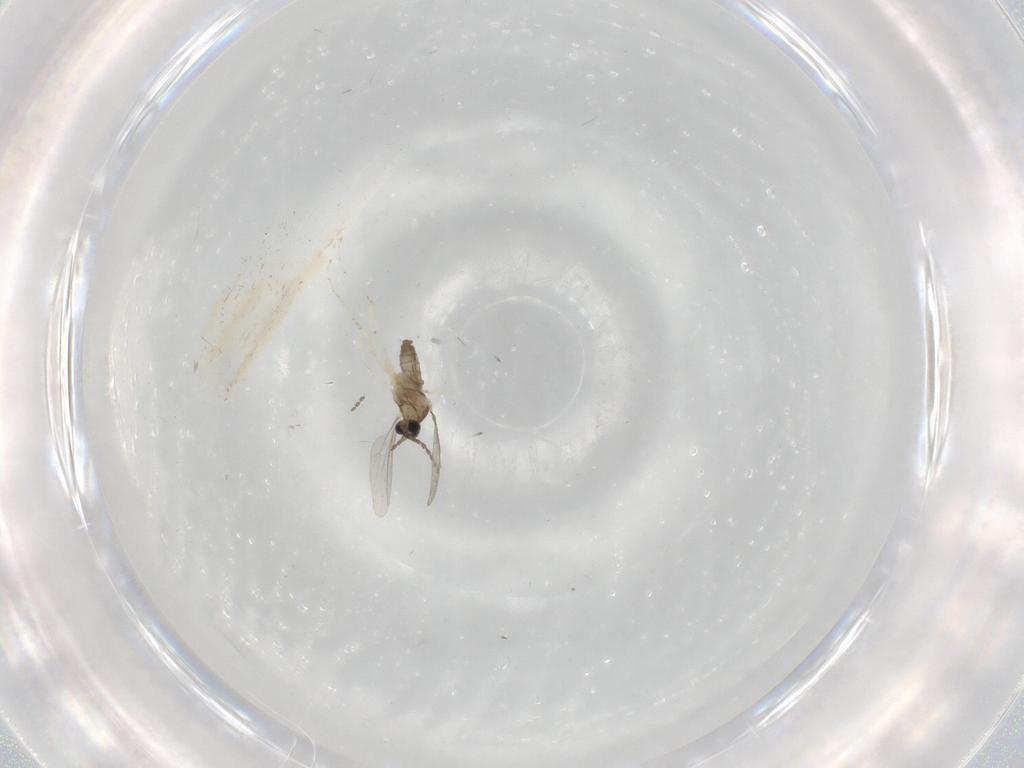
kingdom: Animalia
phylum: Arthropoda
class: Insecta
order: Diptera
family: Cecidomyiidae
